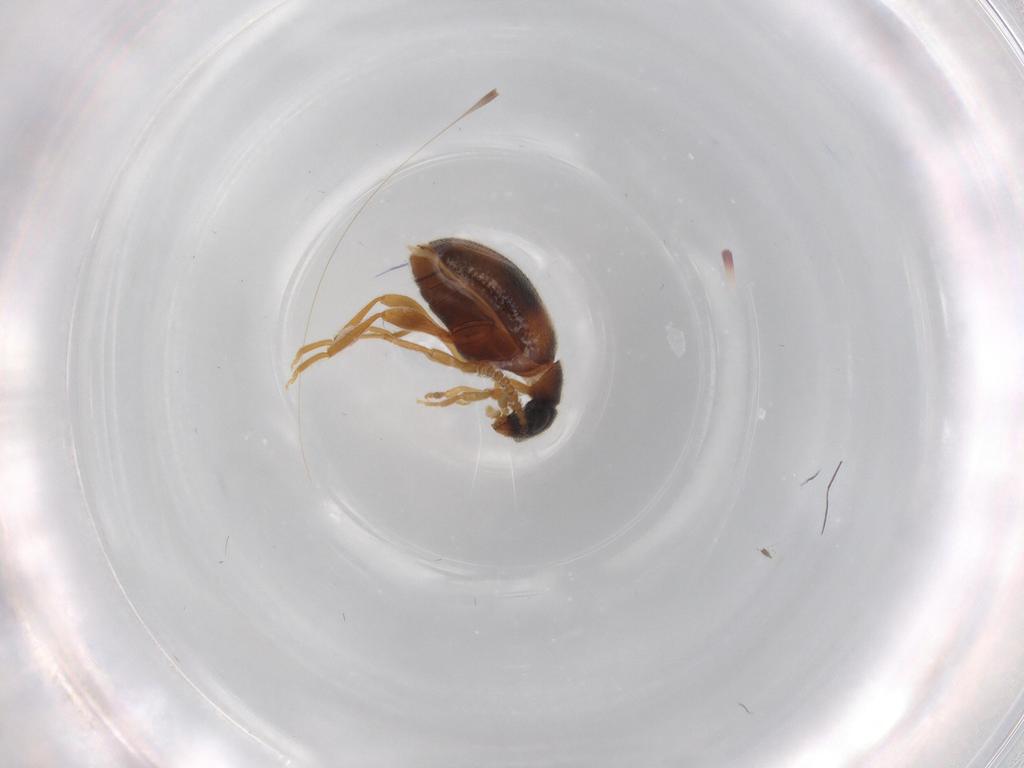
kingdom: Animalia
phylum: Arthropoda
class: Insecta
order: Coleoptera
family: Aderidae
